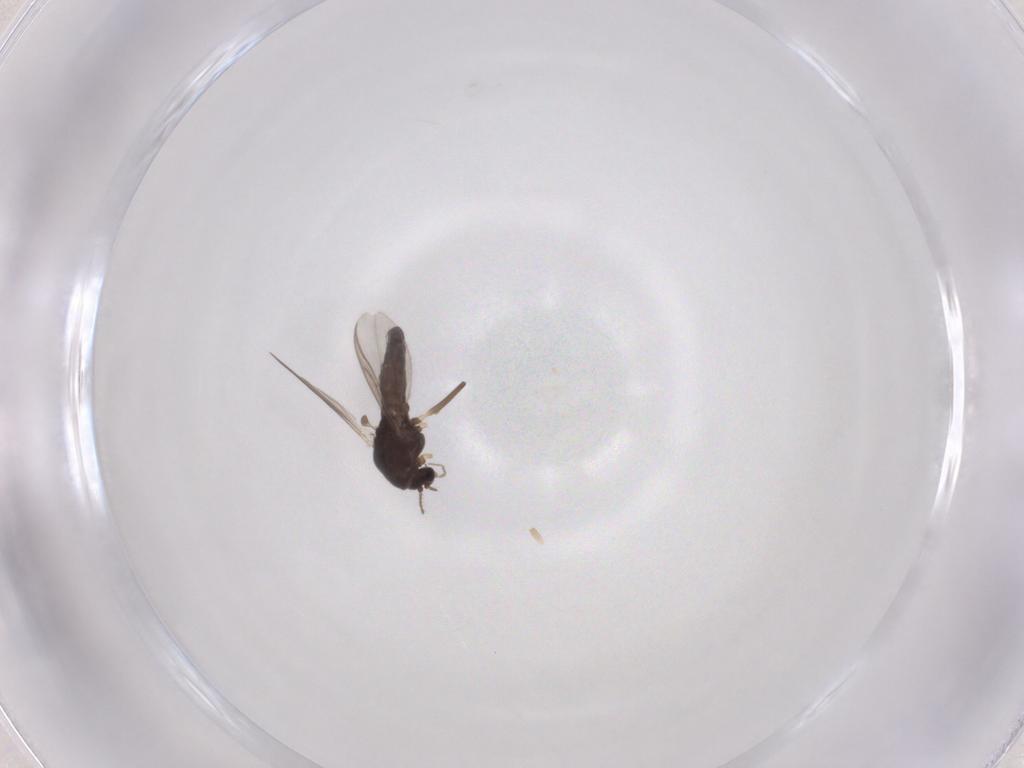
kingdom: Animalia
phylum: Arthropoda
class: Insecta
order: Diptera
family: Chironomidae
